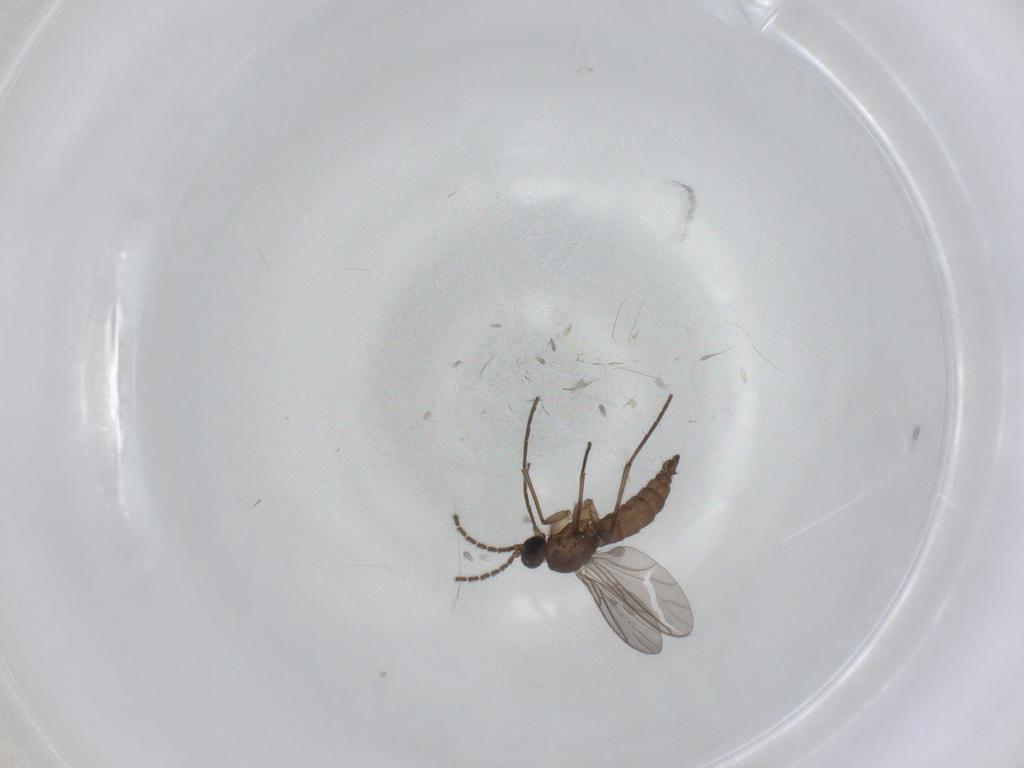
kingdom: Animalia
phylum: Arthropoda
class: Insecta
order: Diptera
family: Sciaridae
